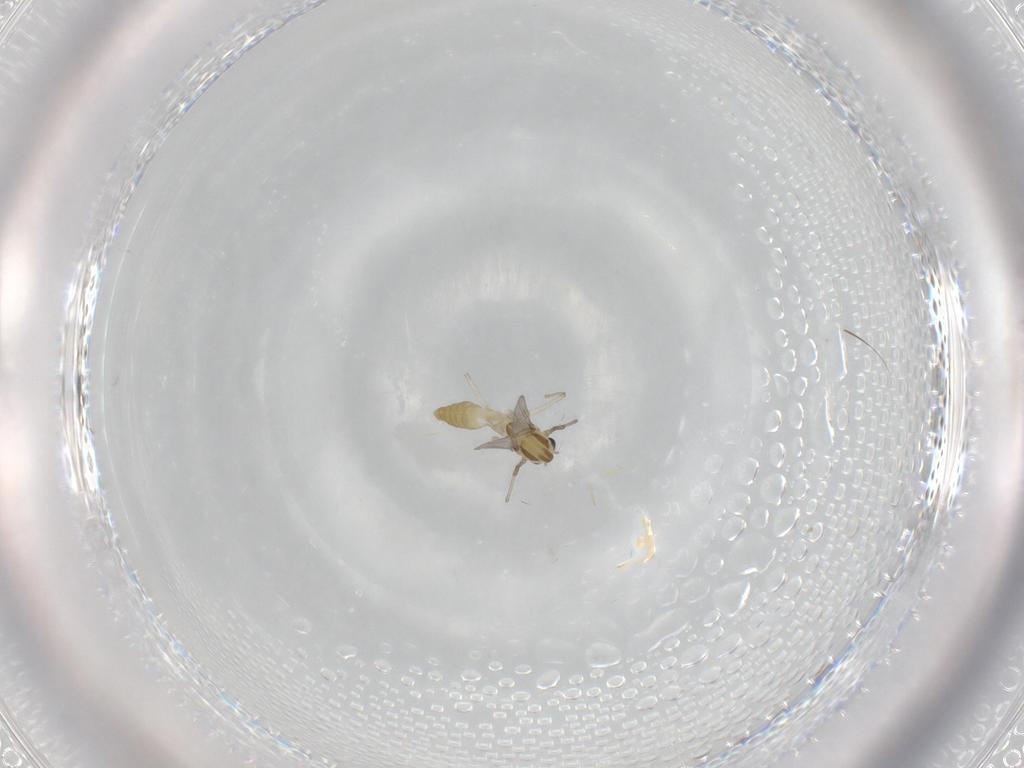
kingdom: Animalia
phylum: Arthropoda
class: Insecta
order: Diptera
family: Chironomidae
